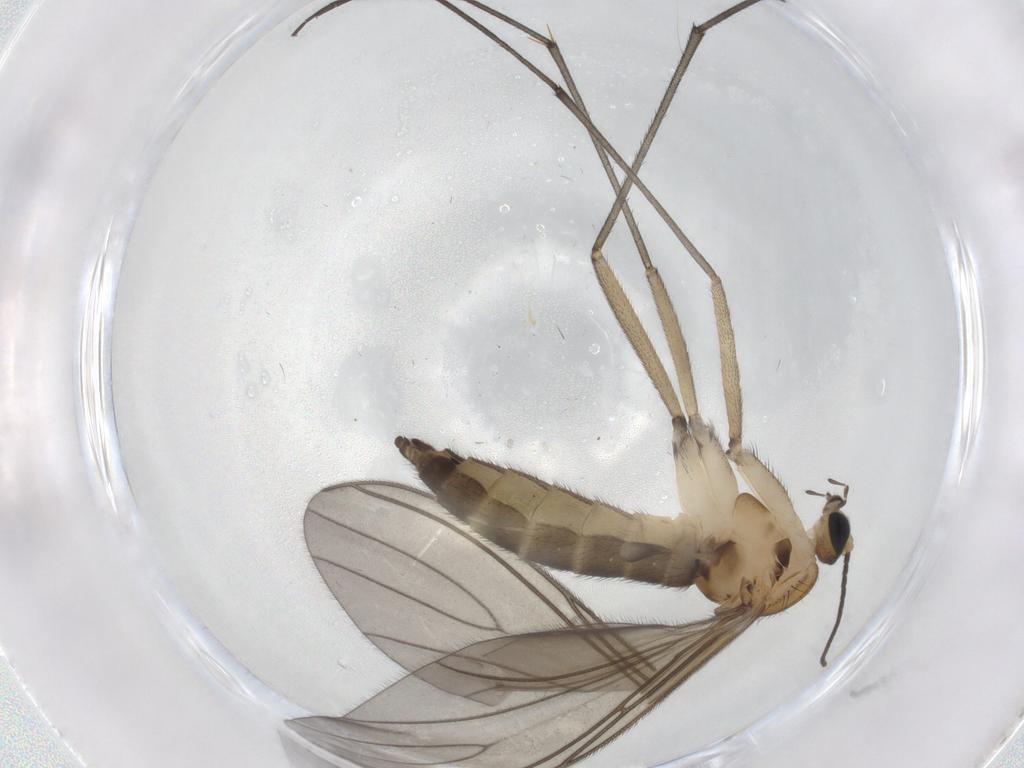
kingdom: Animalia
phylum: Arthropoda
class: Insecta
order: Diptera
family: Sciaridae
